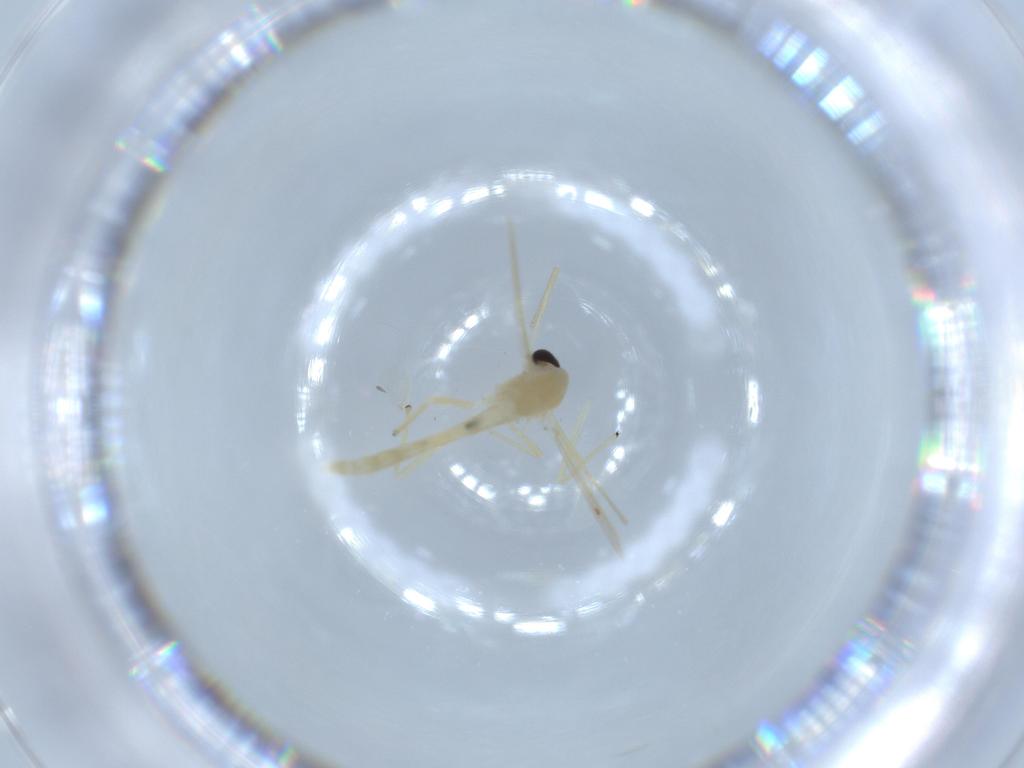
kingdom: Animalia
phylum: Arthropoda
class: Insecta
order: Diptera
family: Chironomidae
